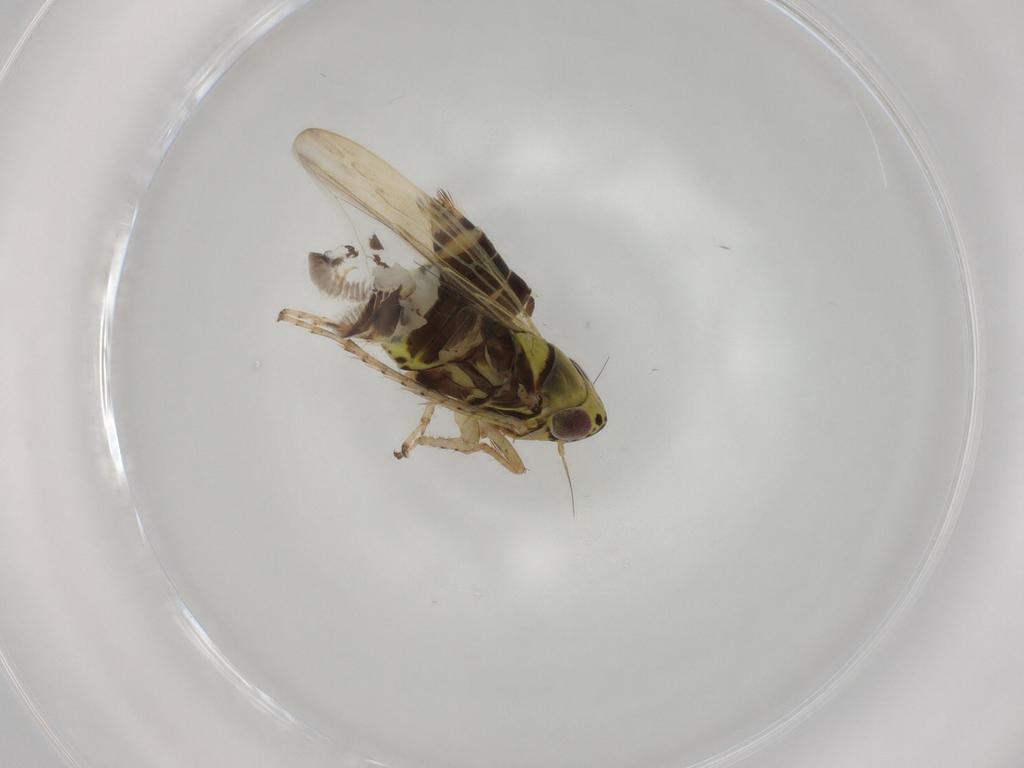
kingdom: Animalia
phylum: Arthropoda
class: Insecta
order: Hemiptera
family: Cicadellidae
